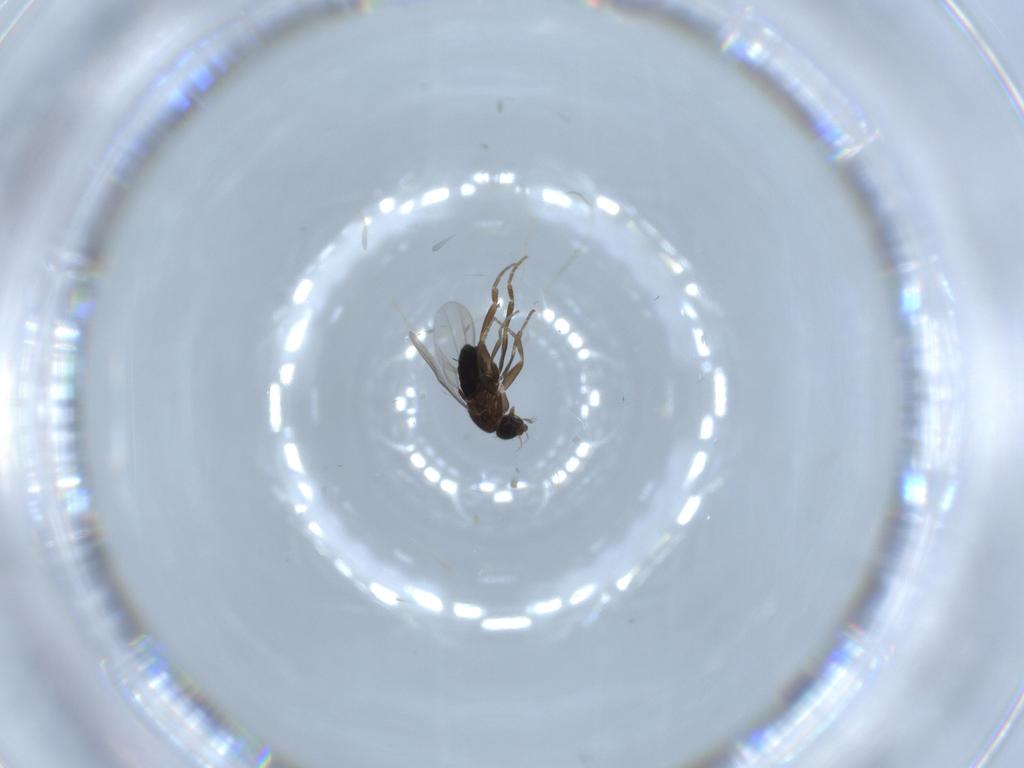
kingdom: Animalia
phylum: Arthropoda
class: Insecta
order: Diptera
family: Phoridae
